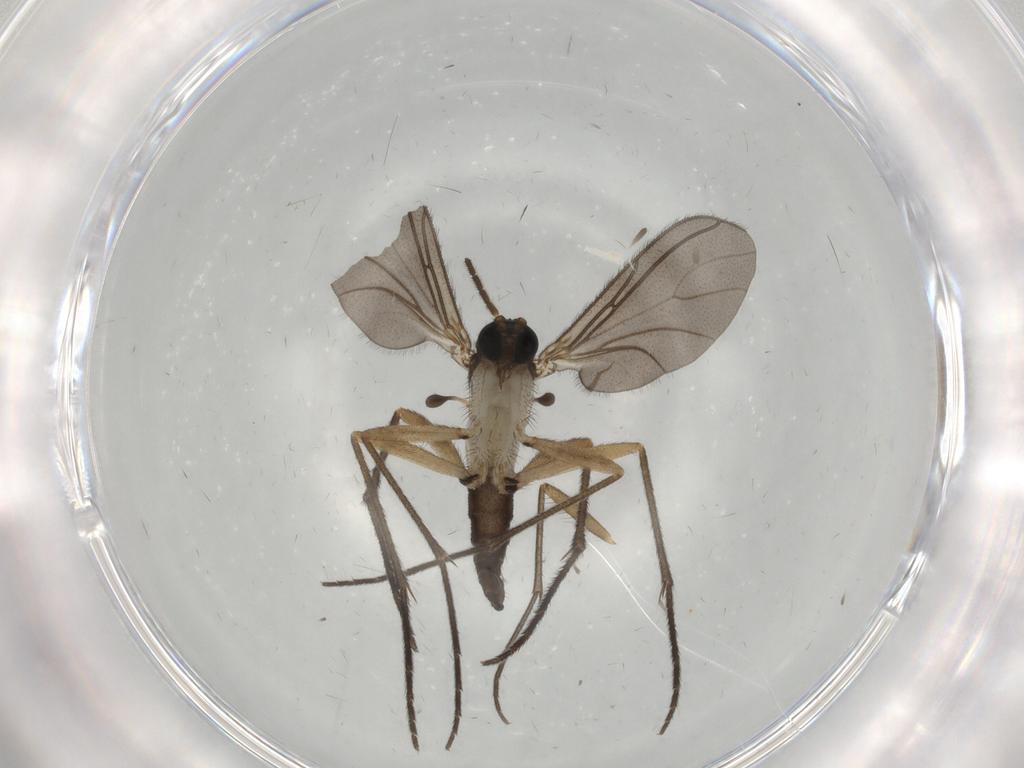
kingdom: Animalia
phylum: Arthropoda
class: Insecta
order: Diptera
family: Sciaridae
